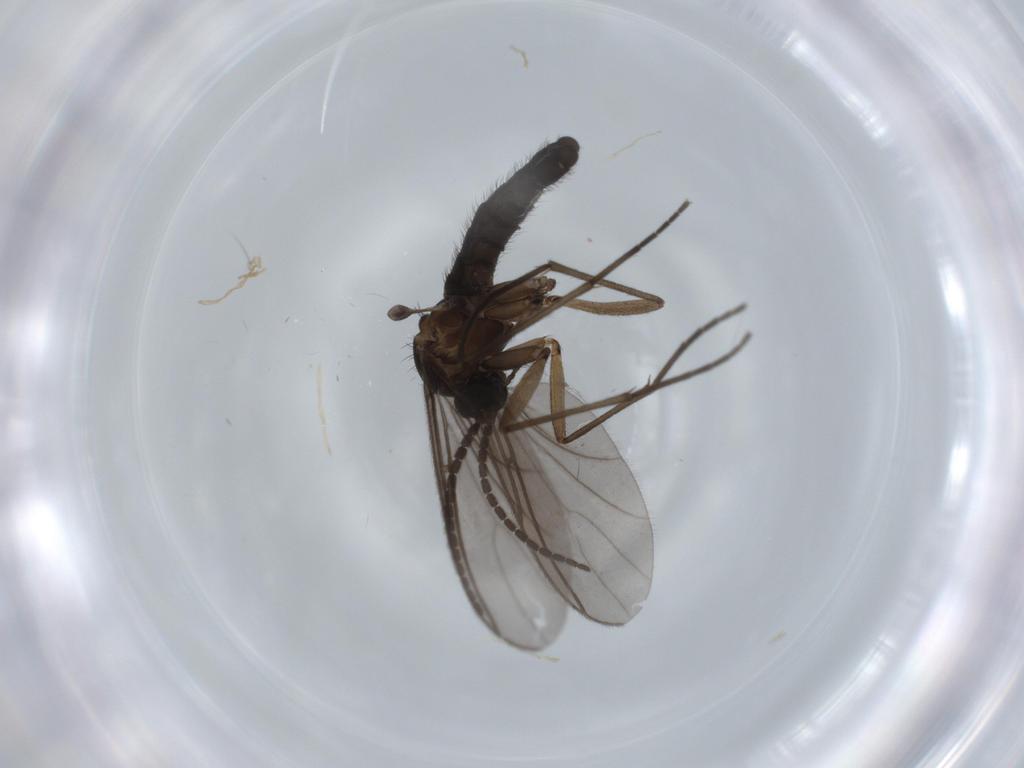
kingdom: Animalia
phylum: Arthropoda
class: Insecta
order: Diptera
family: Sciaridae
